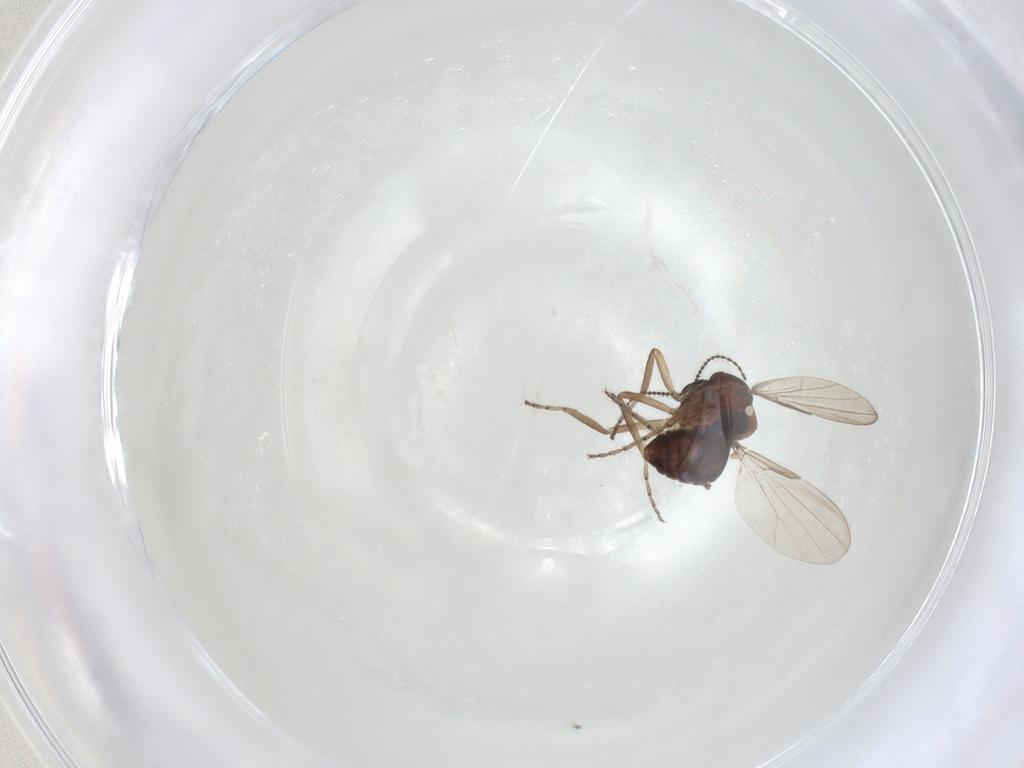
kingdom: Animalia
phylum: Arthropoda
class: Insecta
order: Diptera
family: Ceratopogonidae
